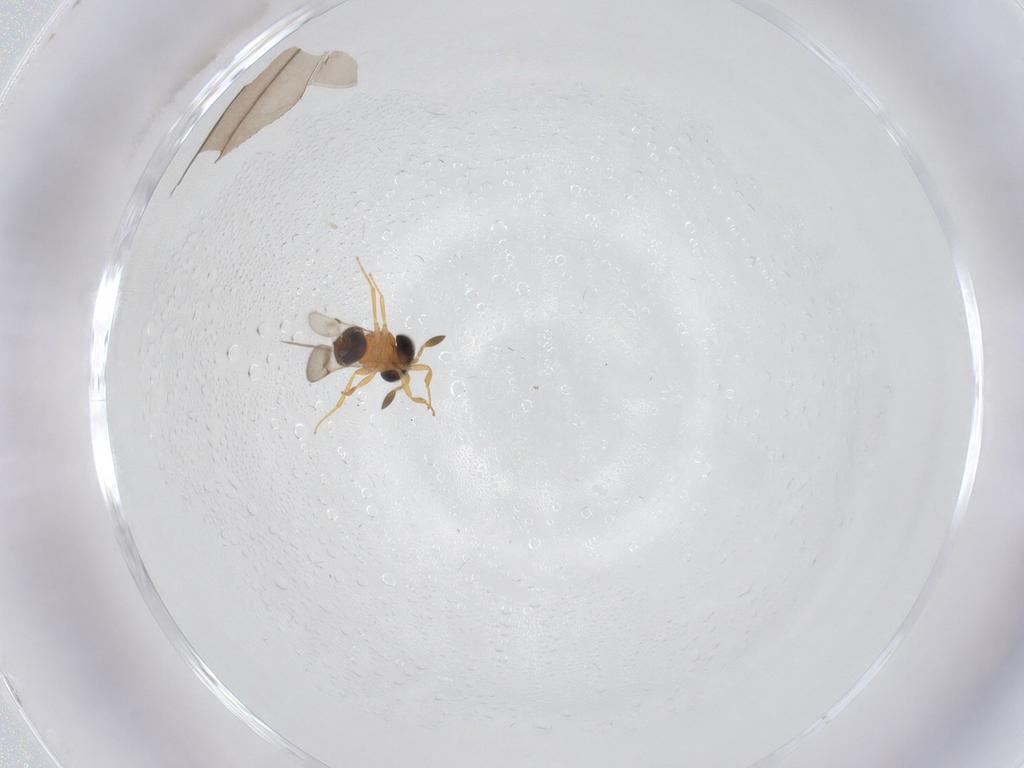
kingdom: Animalia
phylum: Arthropoda
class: Insecta
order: Hymenoptera
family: Scelionidae
